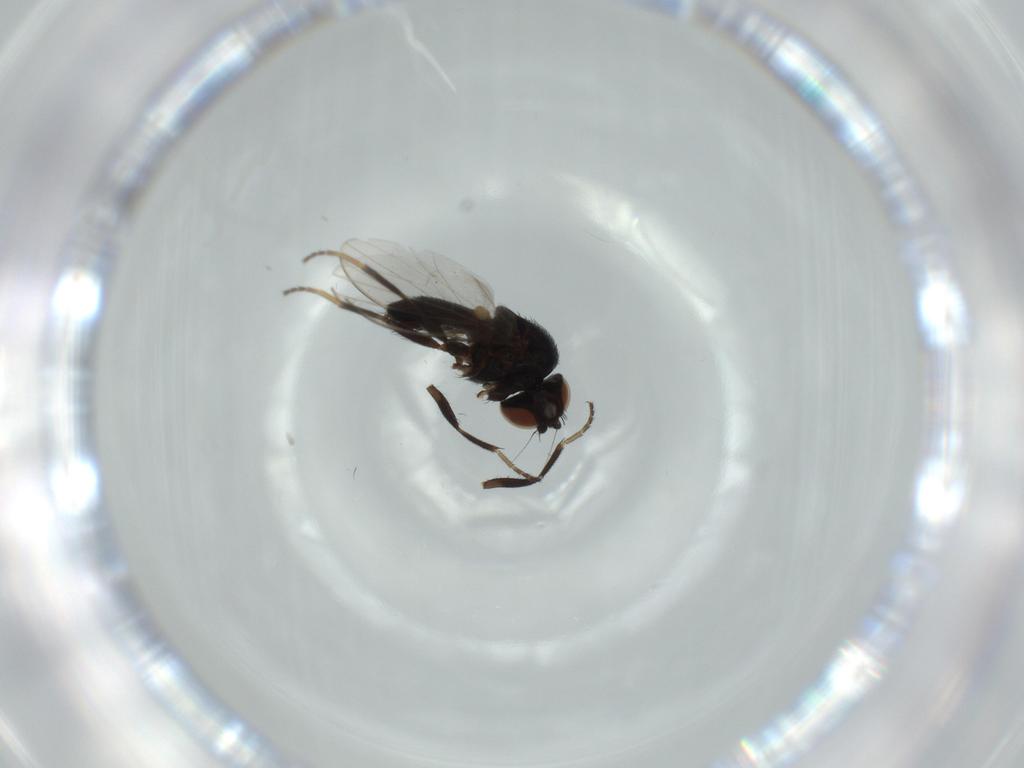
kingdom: Animalia
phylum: Arthropoda
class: Insecta
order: Diptera
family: Milichiidae
